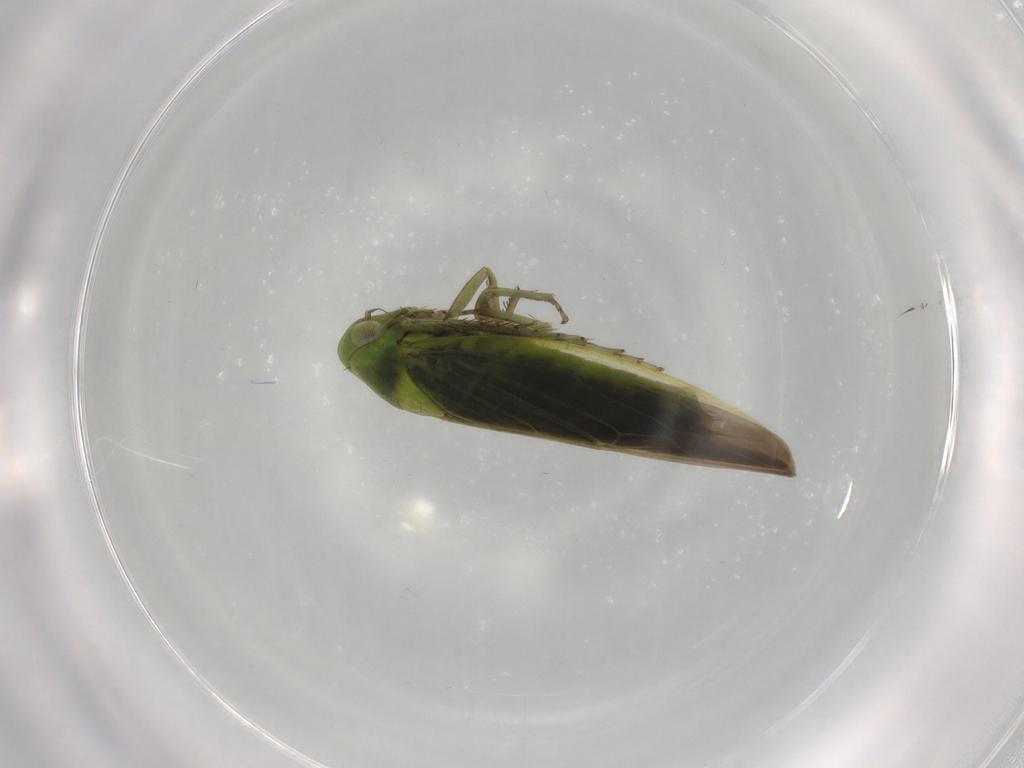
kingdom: Animalia
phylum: Arthropoda
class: Insecta
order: Hemiptera
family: Cicadellidae
